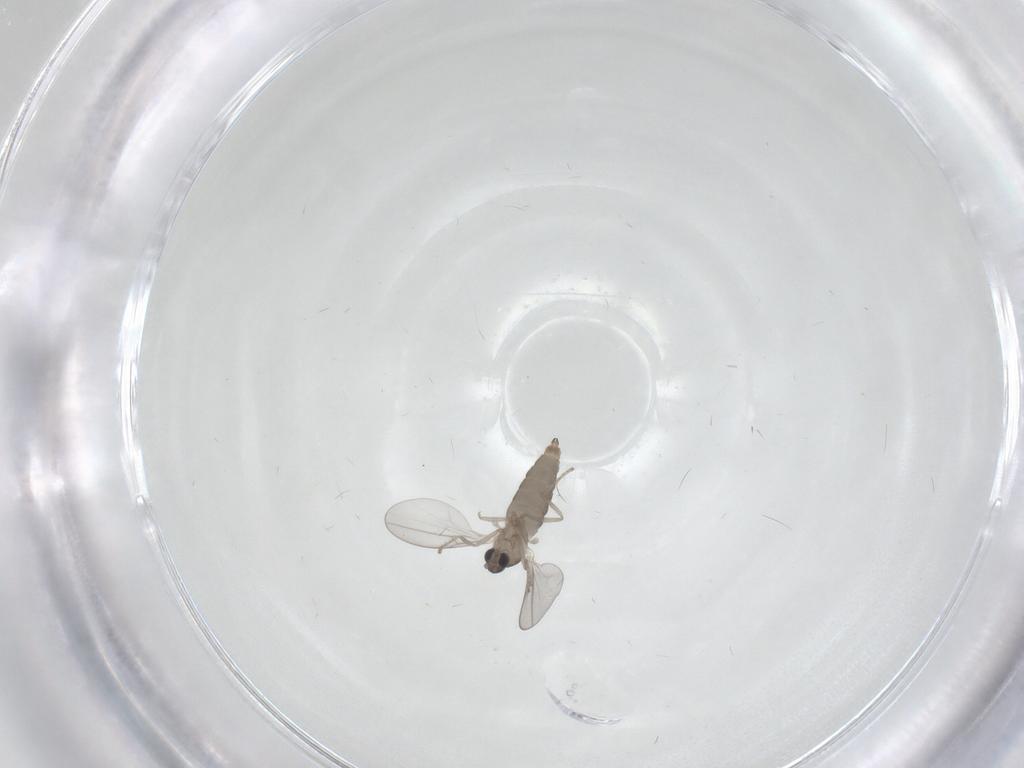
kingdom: Animalia
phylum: Arthropoda
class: Insecta
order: Diptera
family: Cecidomyiidae
